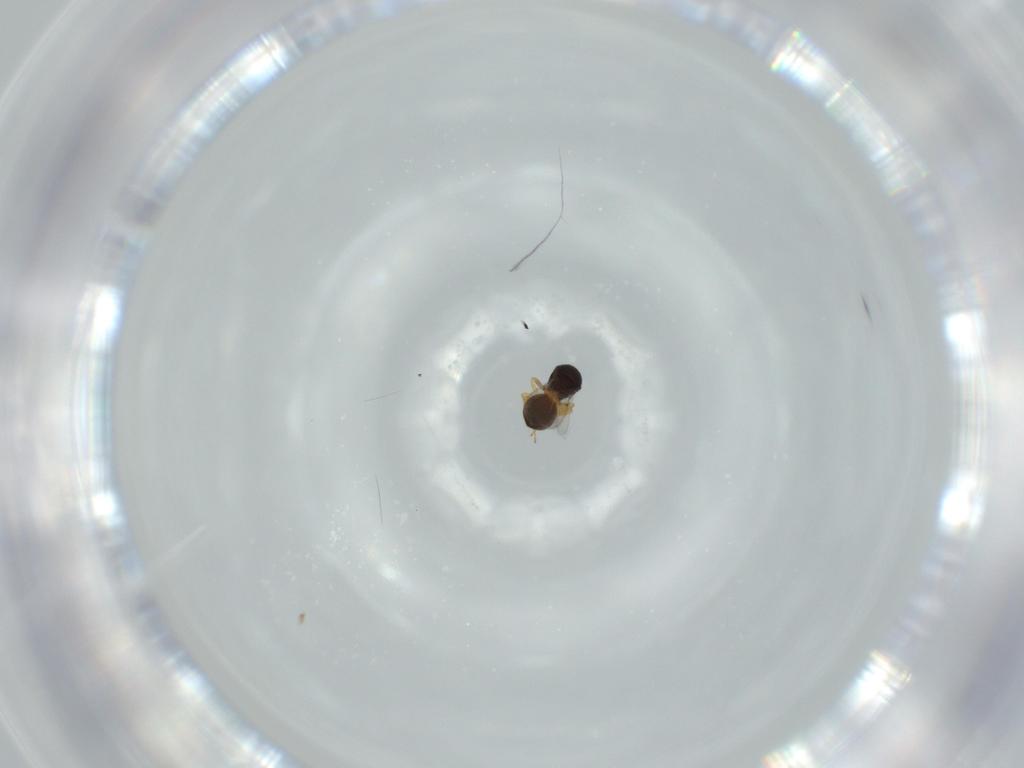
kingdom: Animalia
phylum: Arthropoda
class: Insecta
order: Hymenoptera
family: Scelionidae
